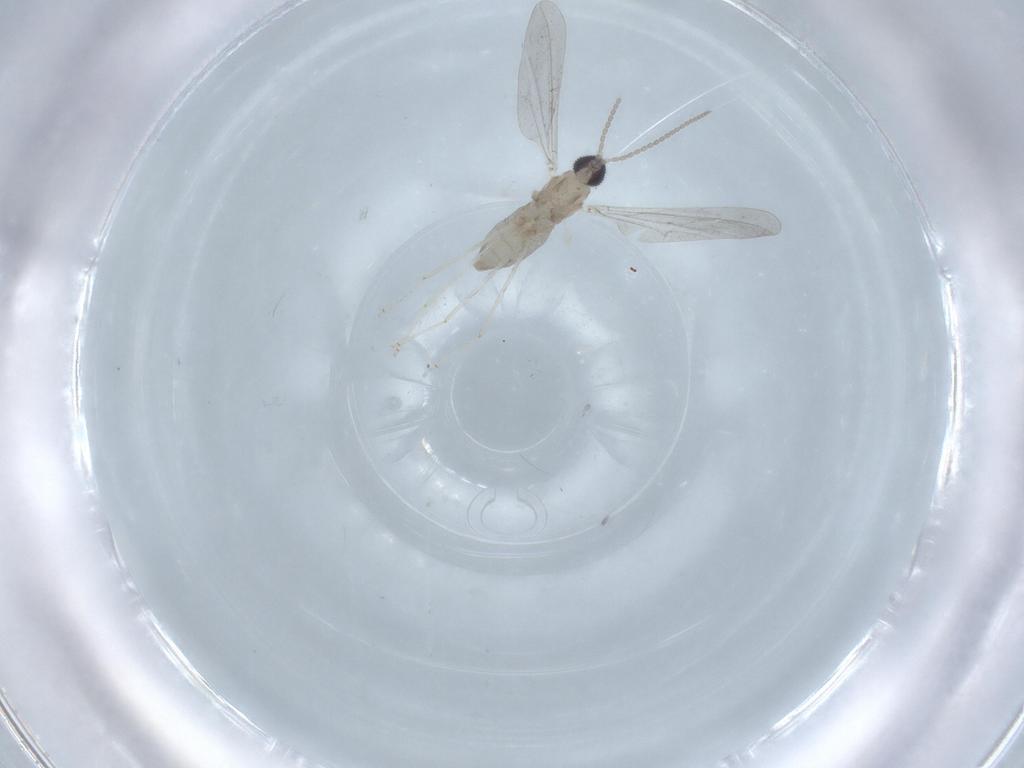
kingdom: Animalia
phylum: Arthropoda
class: Insecta
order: Diptera
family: Cecidomyiidae
